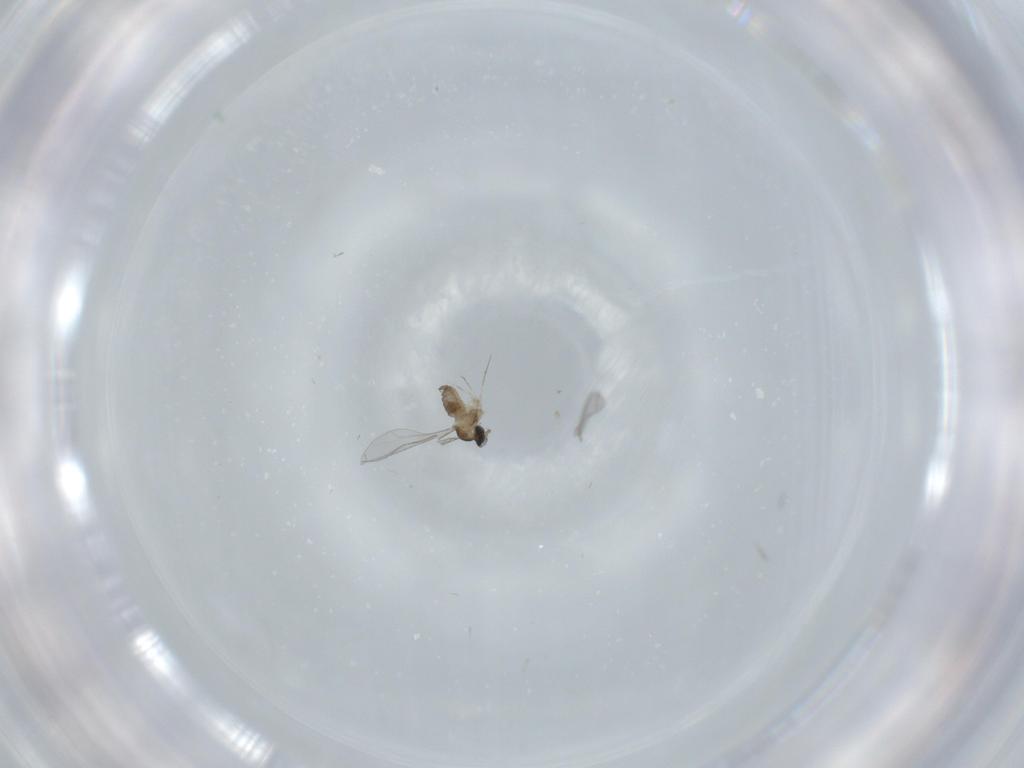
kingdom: Animalia
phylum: Arthropoda
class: Insecta
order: Diptera
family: Cecidomyiidae
